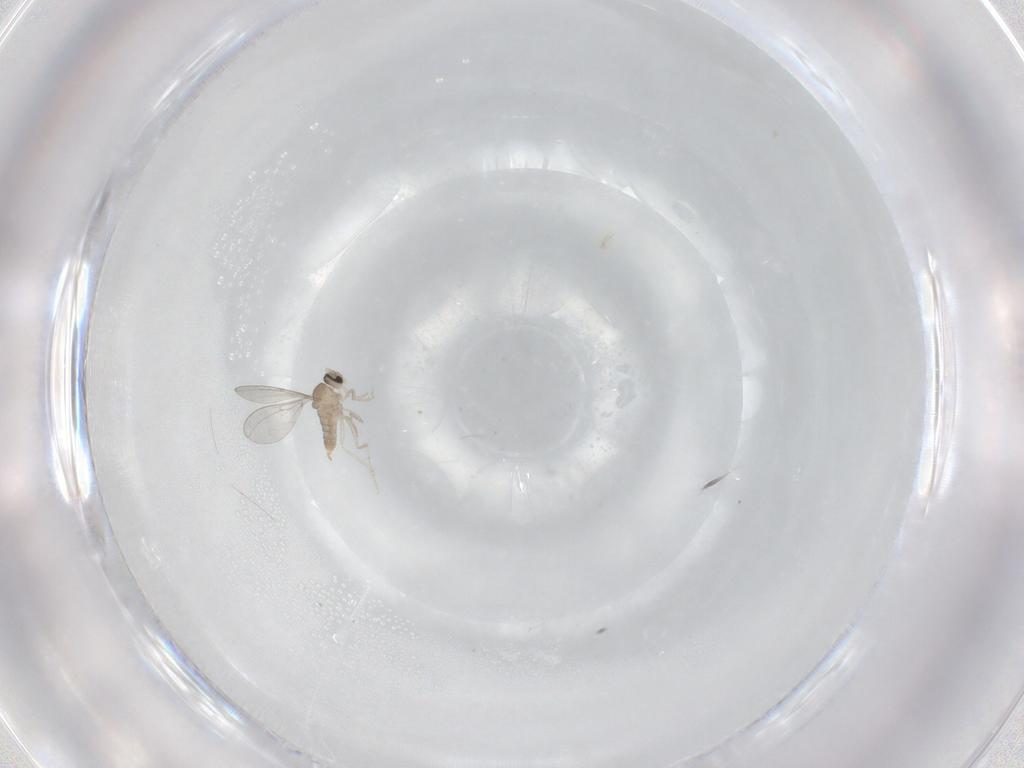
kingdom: Animalia
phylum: Arthropoda
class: Insecta
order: Diptera
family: Cecidomyiidae
